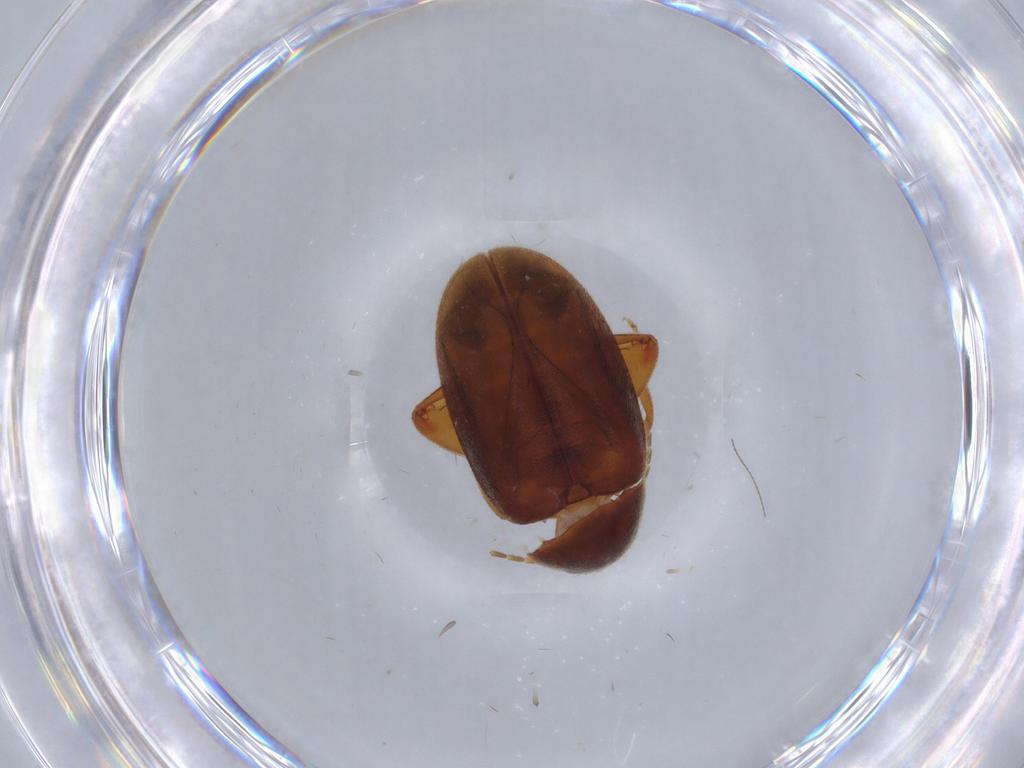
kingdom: Animalia
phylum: Arthropoda
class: Insecta
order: Coleoptera
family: Scirtidae
